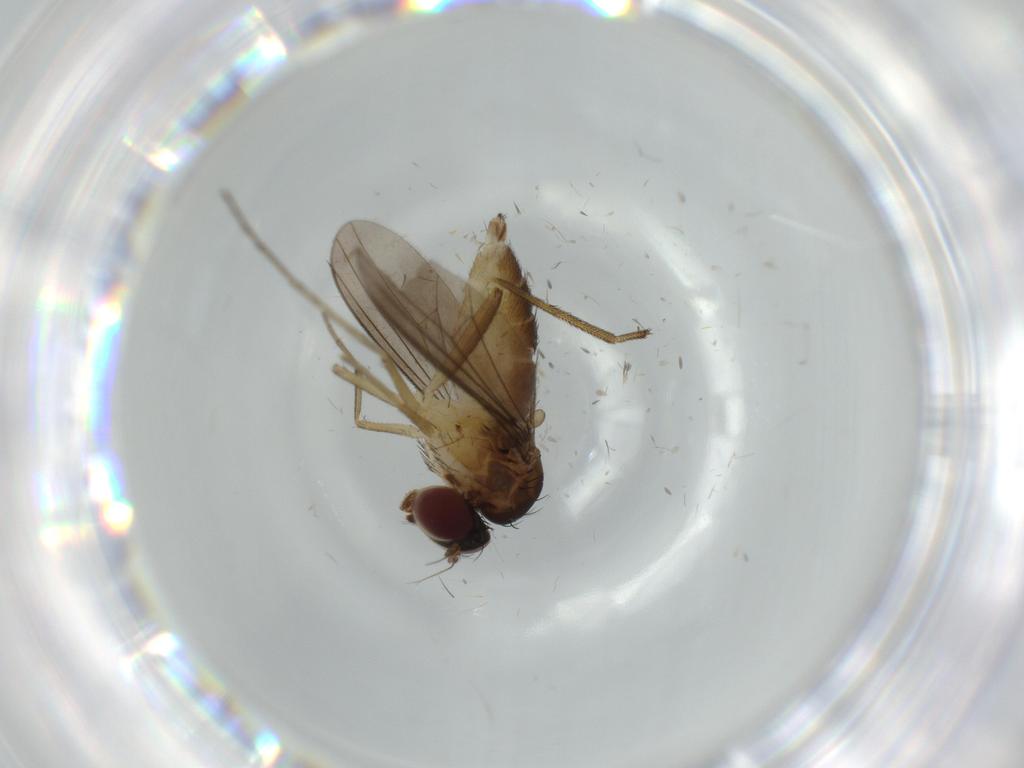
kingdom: Animalia
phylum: Arthropoda
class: Insecta
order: Diptera
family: Dolichopodidae
